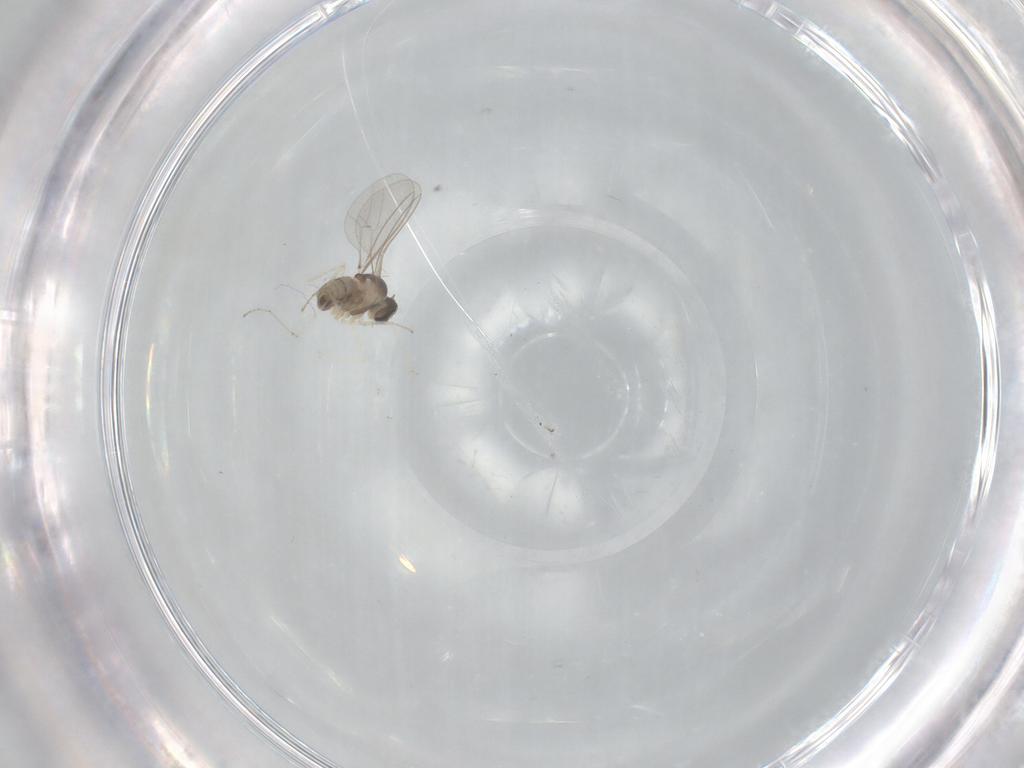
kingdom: Animalia
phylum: Arthropoda
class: Insecta
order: Diptera
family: Cecidomyiidae
